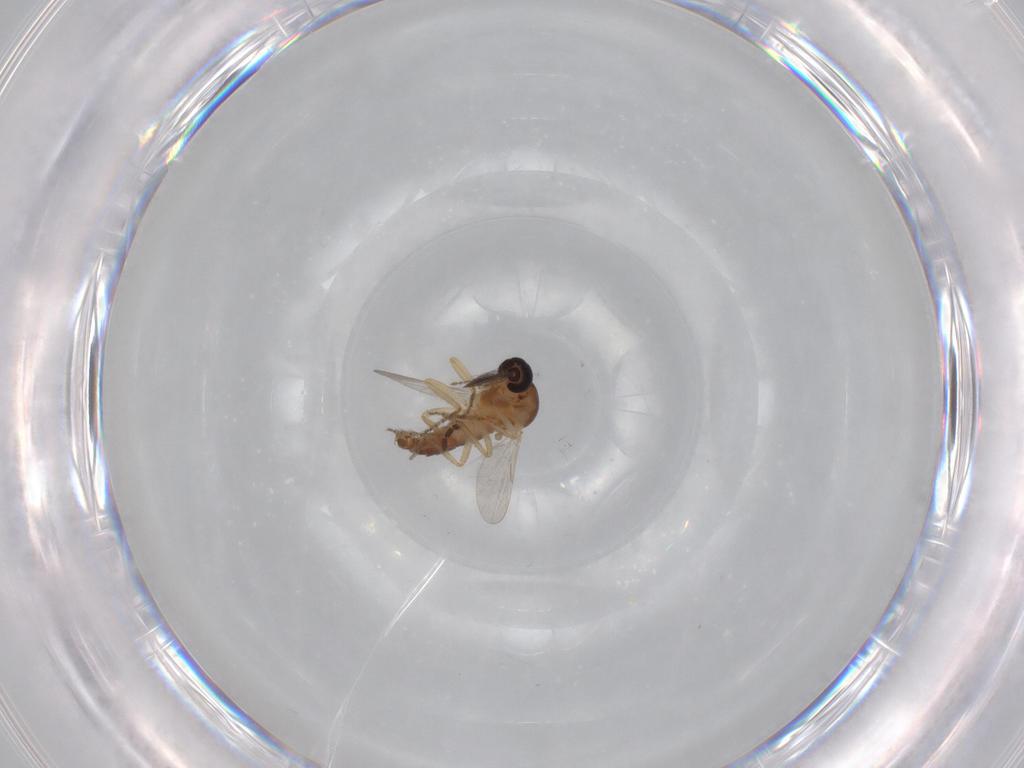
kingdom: Animalia
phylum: Arthropoda
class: Insecta
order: Diptera
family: Ceratopogonidae
